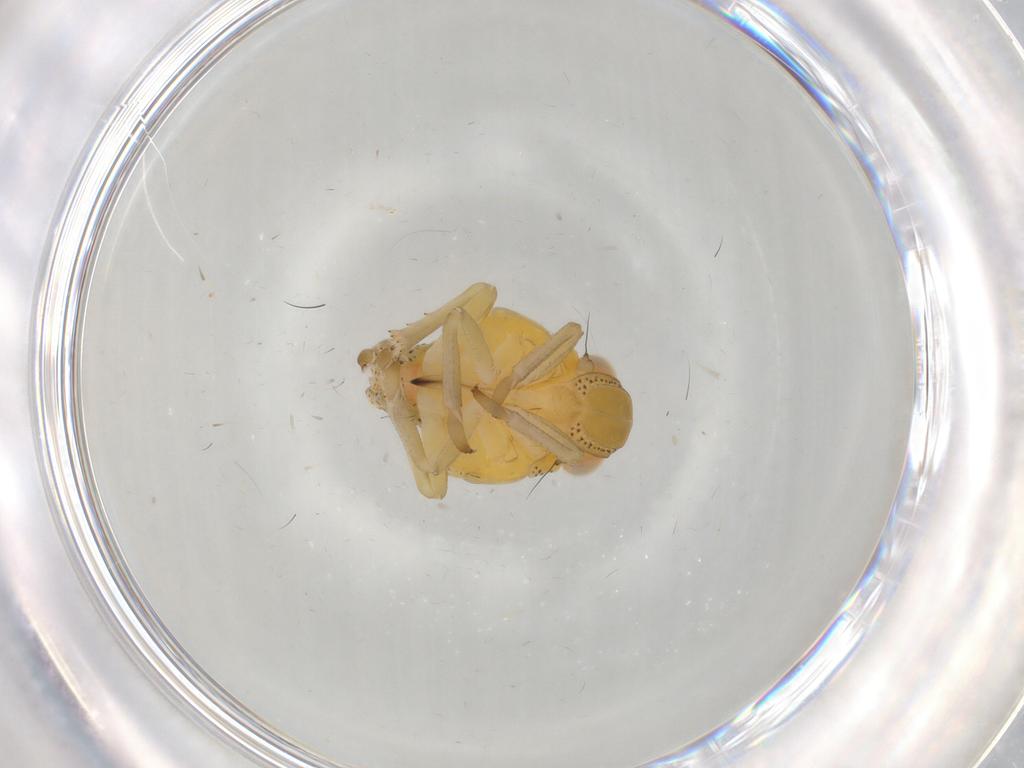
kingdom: Animalia
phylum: Arthropoda
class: Insecta
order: Hemiptera
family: Tropiduchidae
